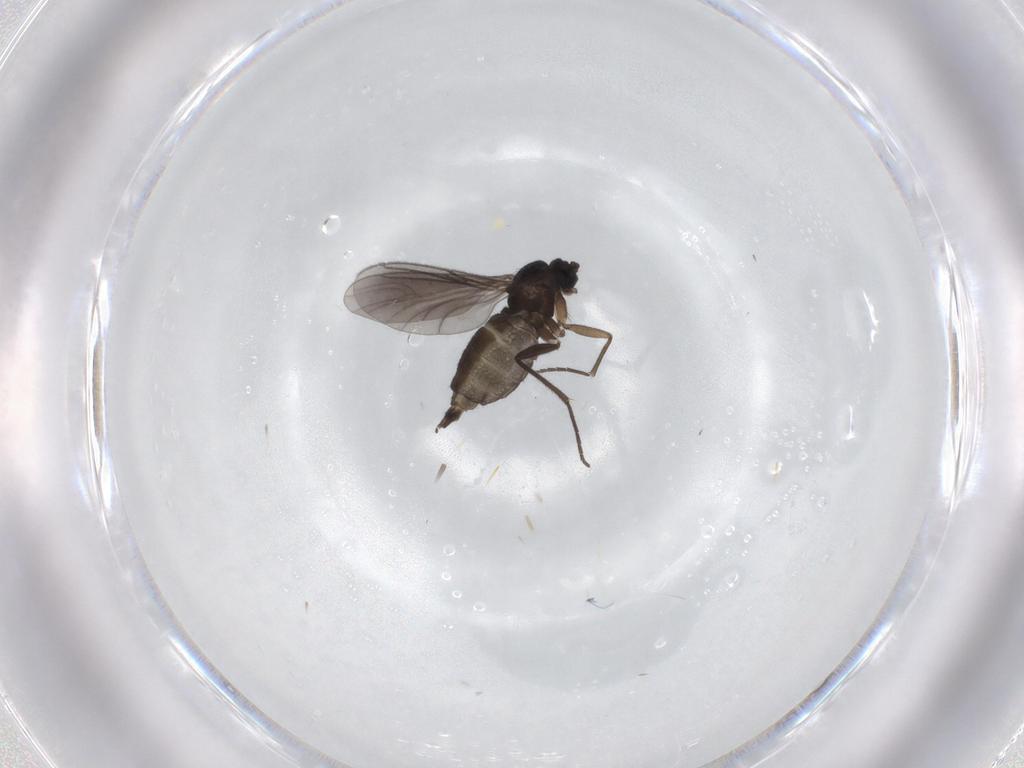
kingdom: Animalia
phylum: Arthropoda
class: Insecta
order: Diptera
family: Sciaridae
